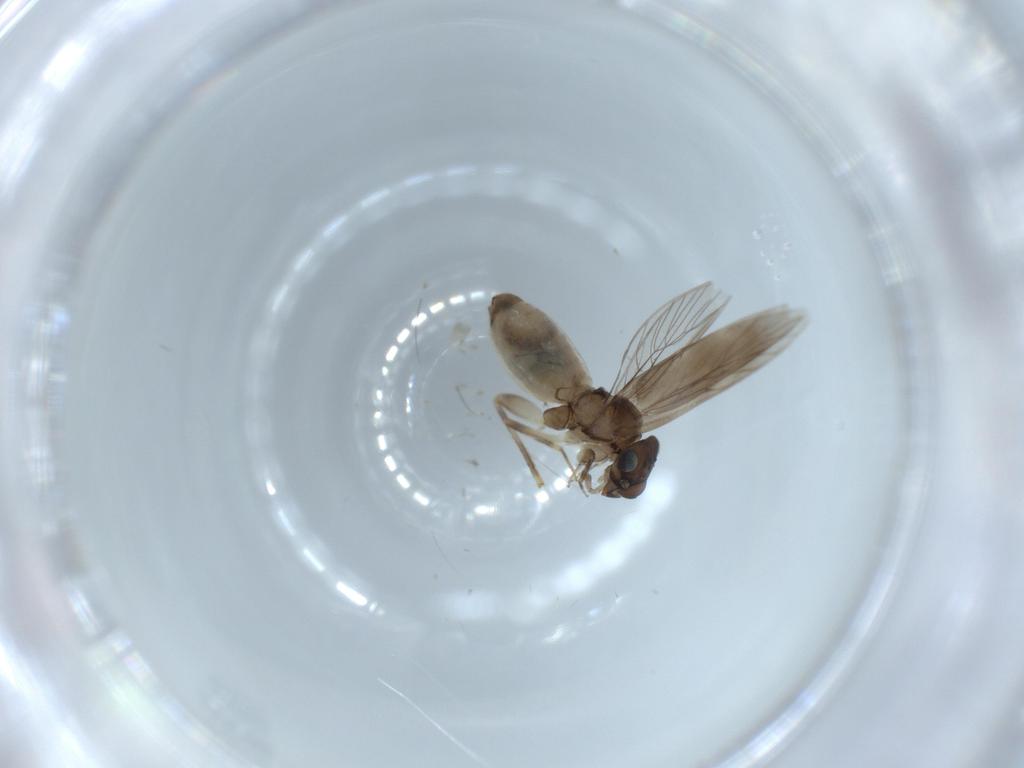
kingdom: Animalia
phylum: Arthropoda
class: Insecta
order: Psocodea
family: Lepidopsocidae
